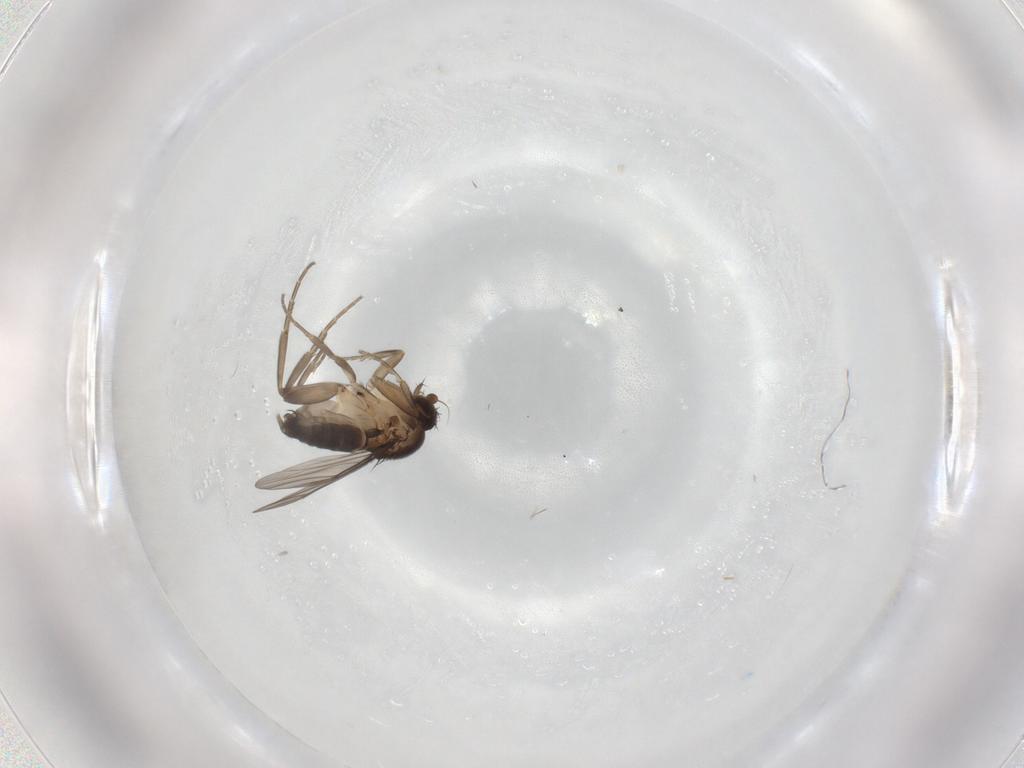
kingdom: Animalia
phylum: Arthropoda
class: Insecta
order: Diptera
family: Phoridae
